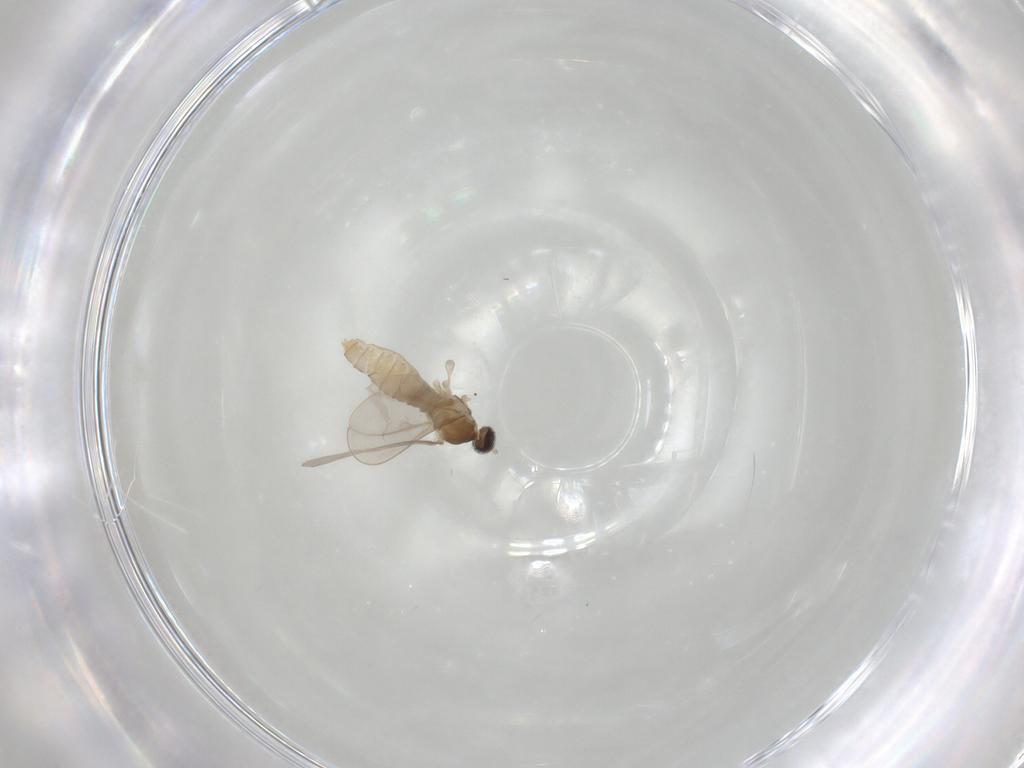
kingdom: Animalia
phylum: Arthropoda
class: Insecta
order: Diptera
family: Cecidomyiidae
